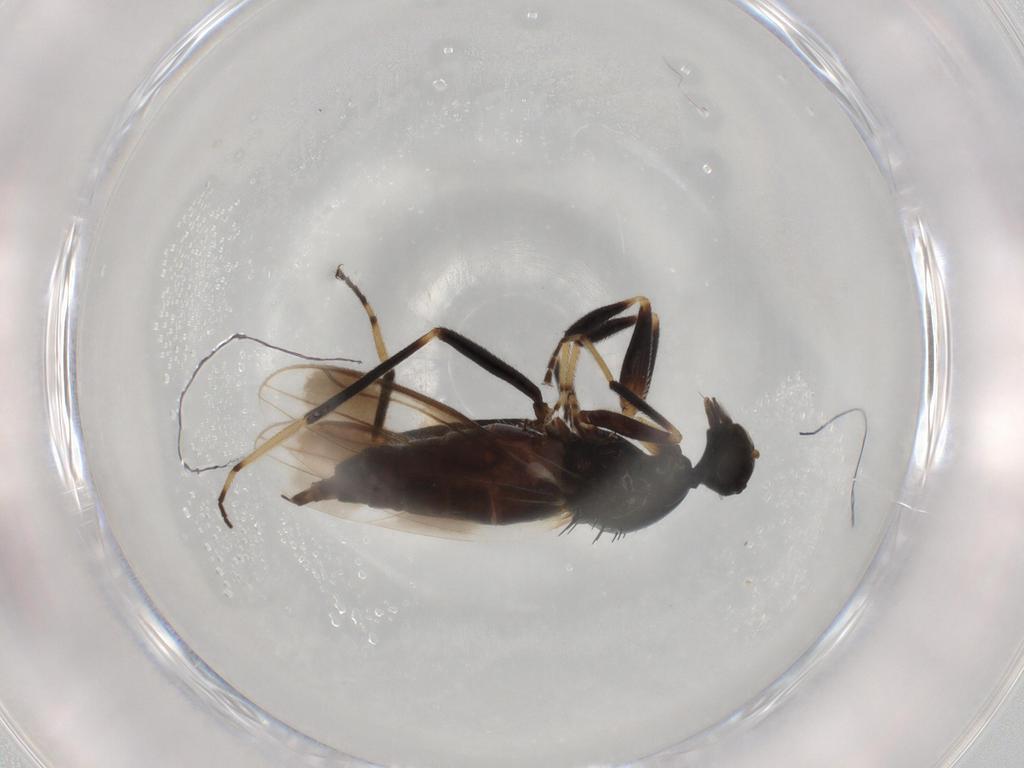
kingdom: Animalia
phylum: Arthropoda
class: Insecta
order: Diptera
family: Hybotidae
